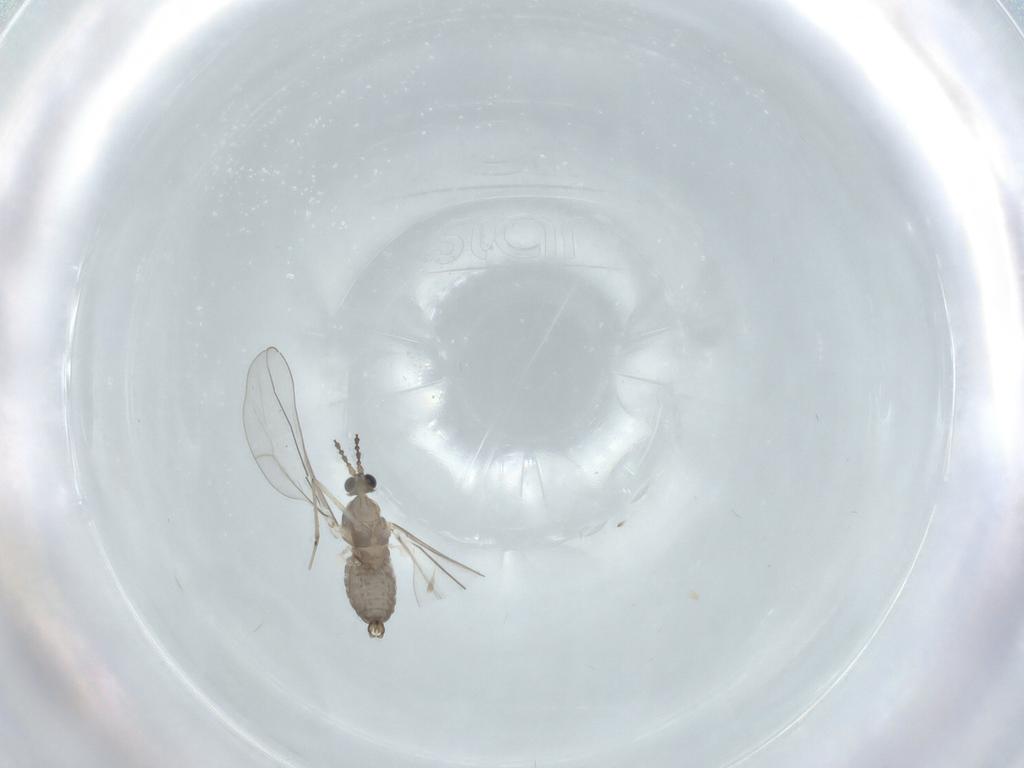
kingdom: Animalia
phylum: Arthropoda
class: Insecta
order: Diptera
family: Cecidomyiidae
